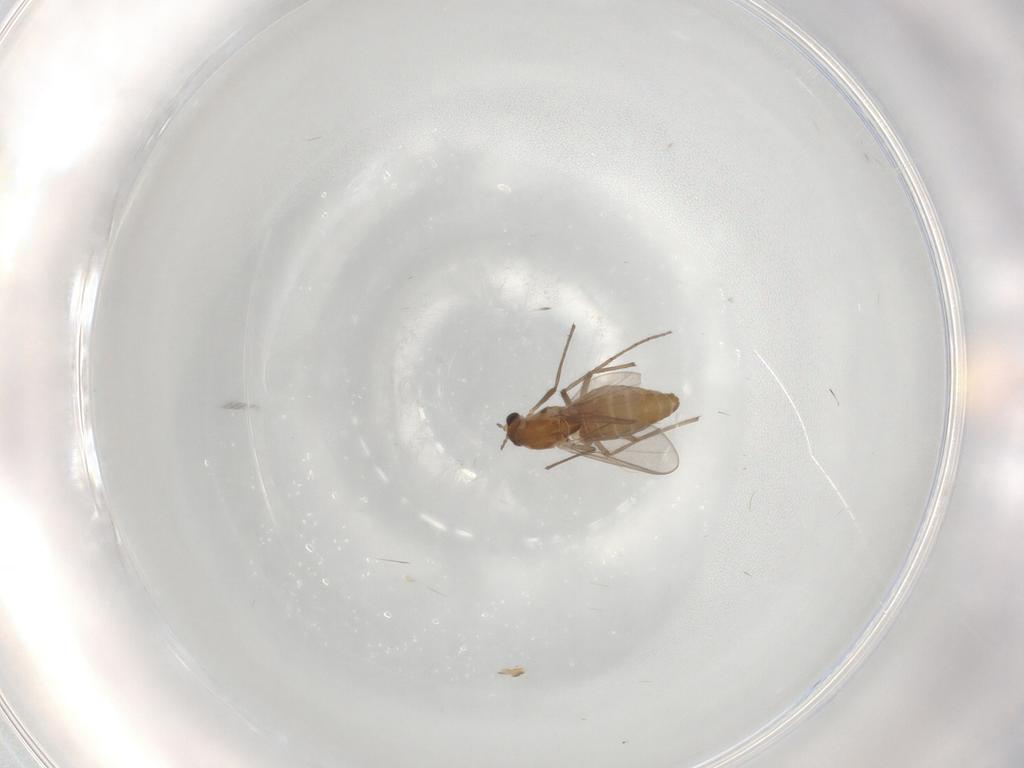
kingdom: Animalia
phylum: Arthropoda
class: Insecta
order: Diptera
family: Chironomidae
